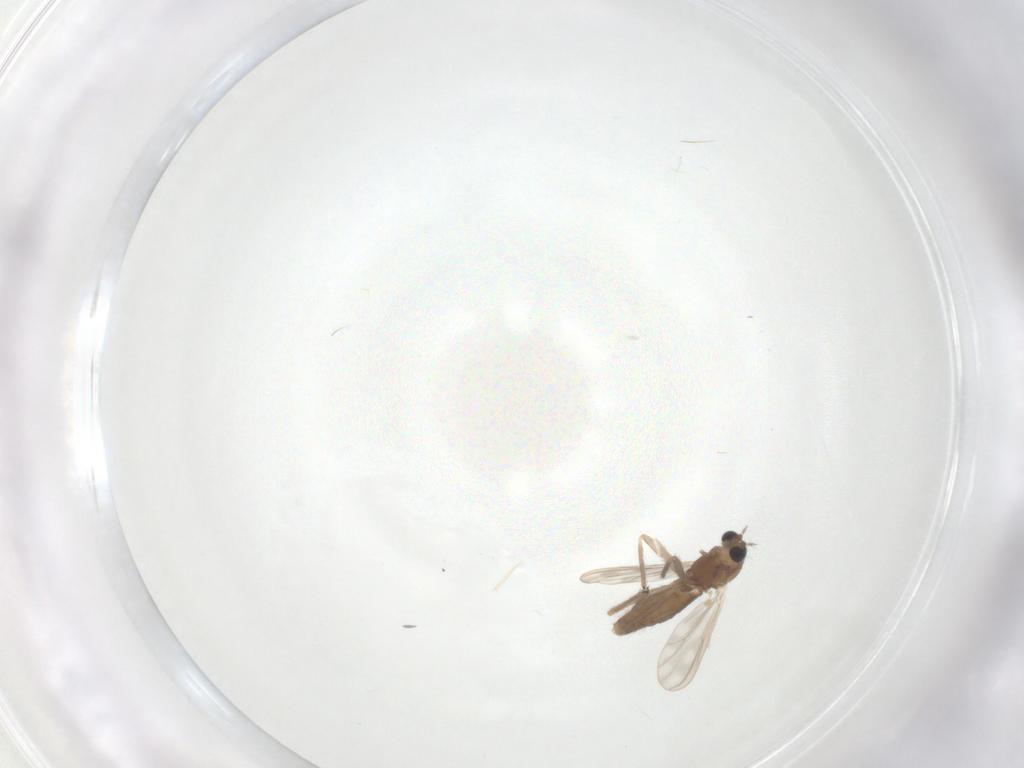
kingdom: Animalia
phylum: Arthropoda
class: Insecta
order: Diptera
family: Chironomidae
